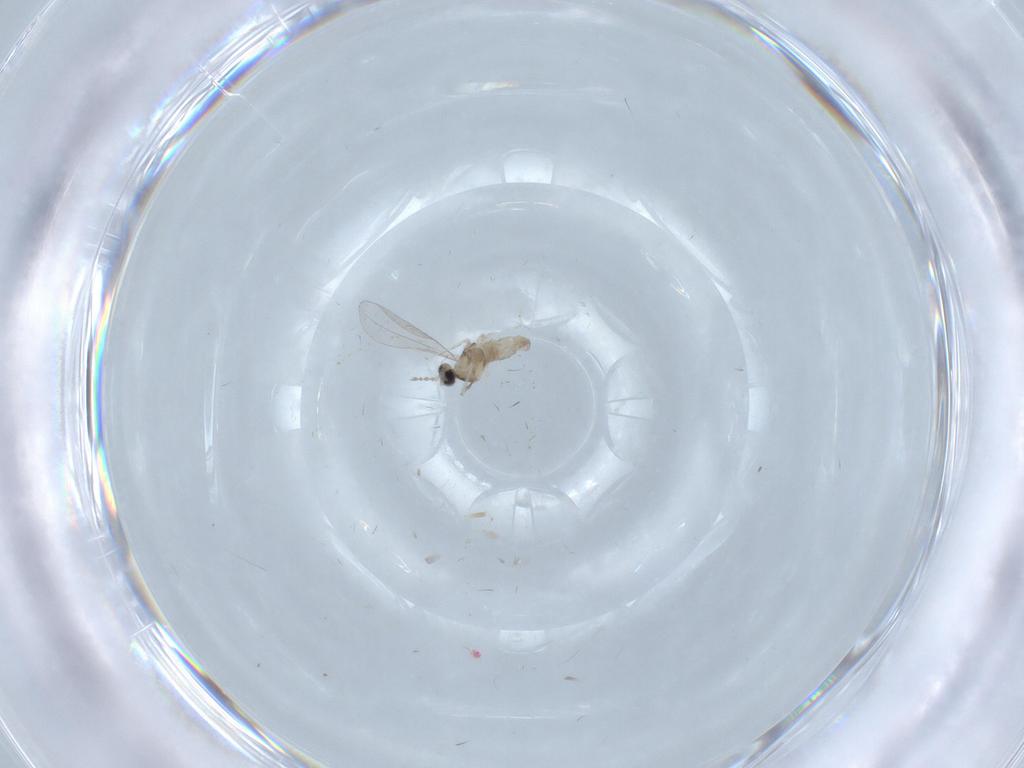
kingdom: Animalia
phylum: Arthropoda
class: Insecta
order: Diptera
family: Cecidomyiidae
